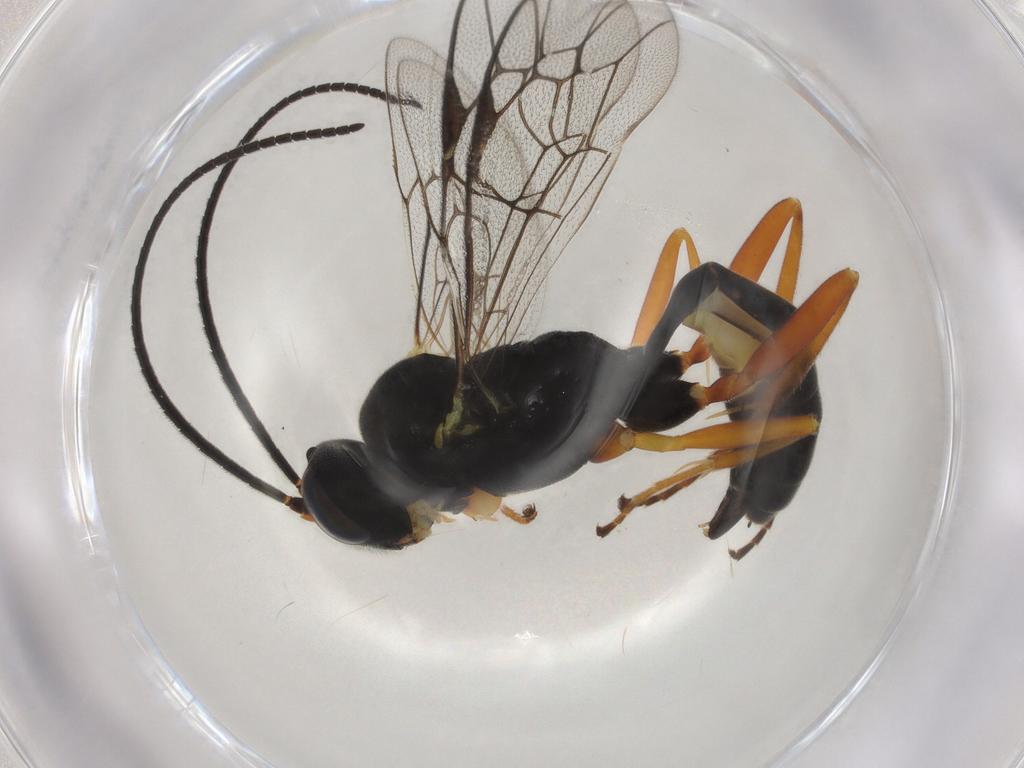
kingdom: Animalia
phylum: Arthropoda
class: Insecta
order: Hymenoptera
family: Ichneumonidae
